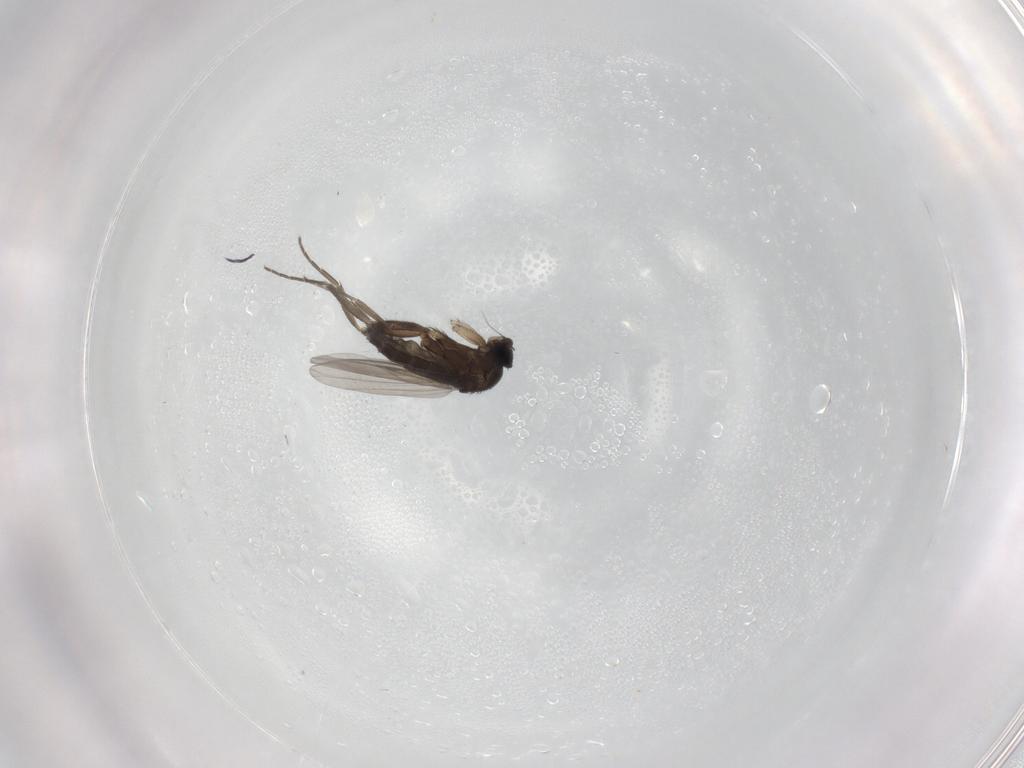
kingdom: Animalia
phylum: Arthropoda
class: Insecta
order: Diptera
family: Phoridae
